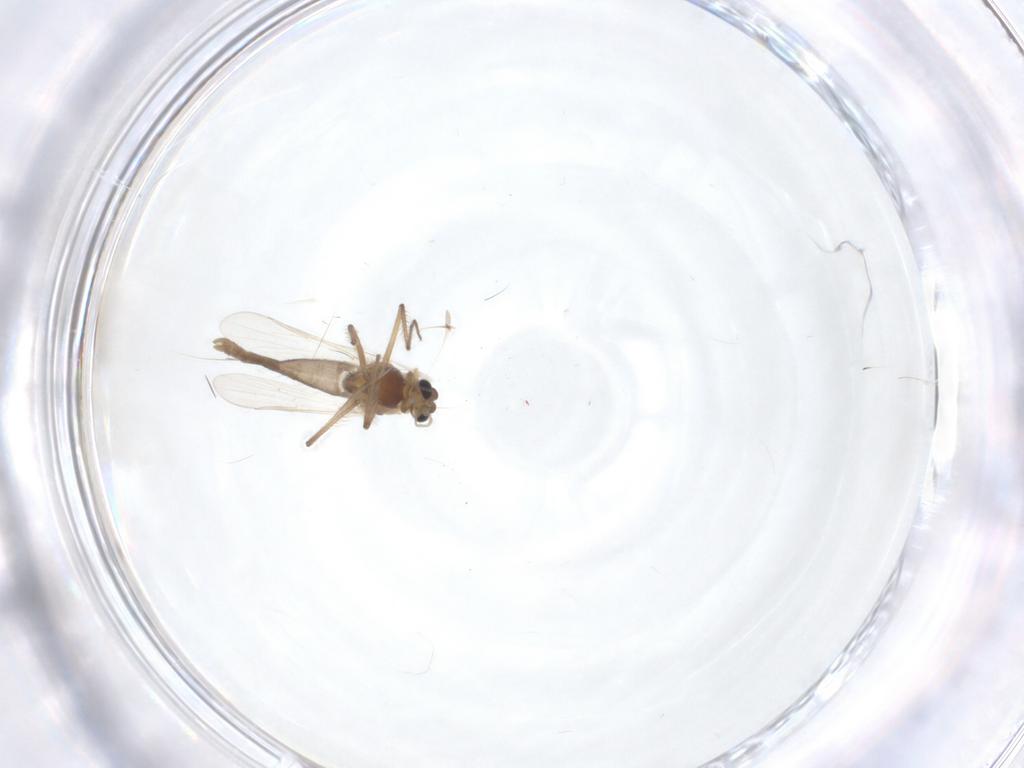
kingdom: Animalia
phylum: Arthropoda
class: Insecta
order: Diptera
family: Chironomidae
